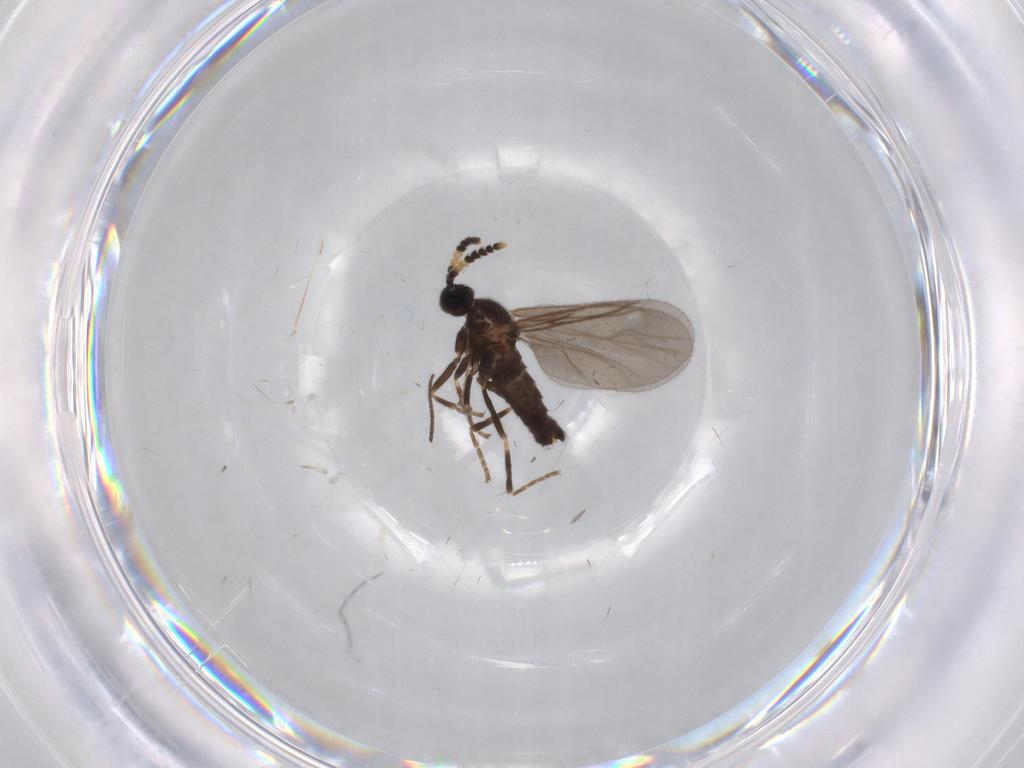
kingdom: Animalia
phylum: Arthropoda
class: Insecta
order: Diptera
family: Scatopsidae
